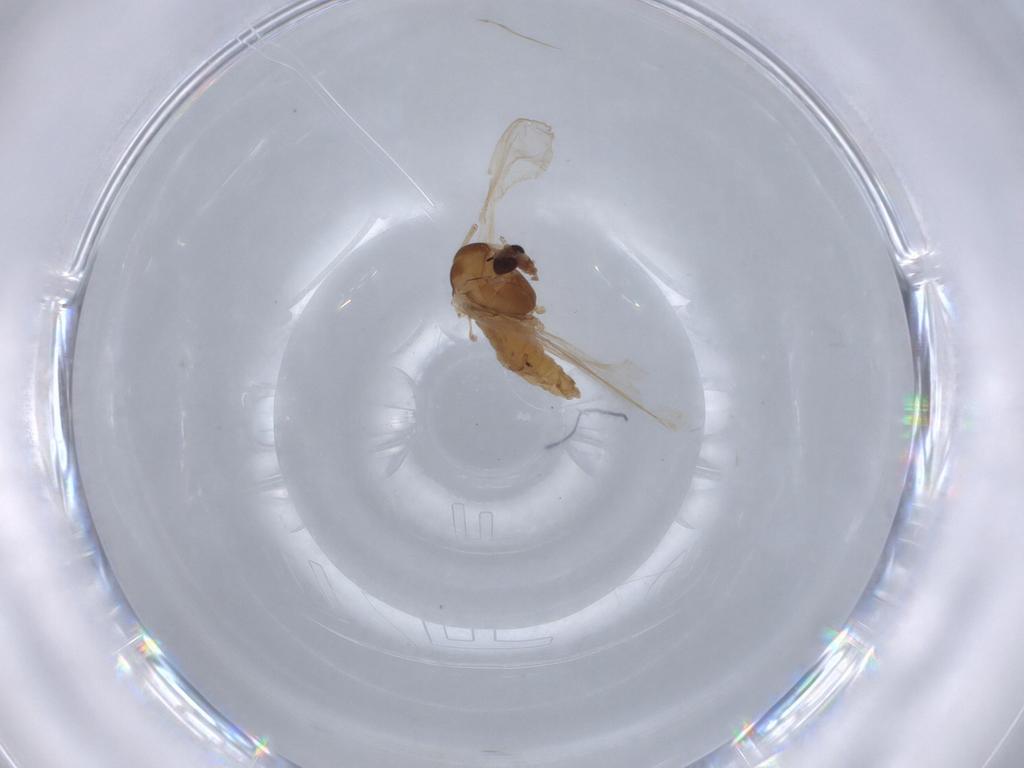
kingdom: Animalia
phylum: Arthropoda
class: Insecta
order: Diptera
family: Chironomidae
